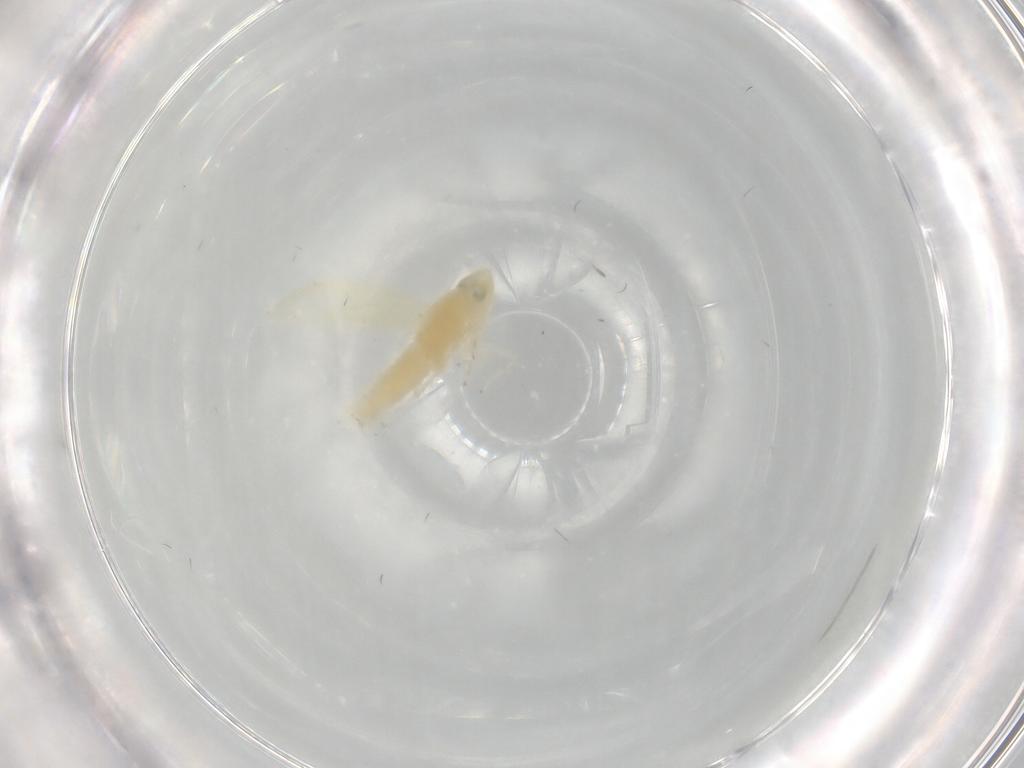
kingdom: Animalia
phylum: Arthropoda
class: Insecta
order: Hemiptera
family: Cicadellidae
